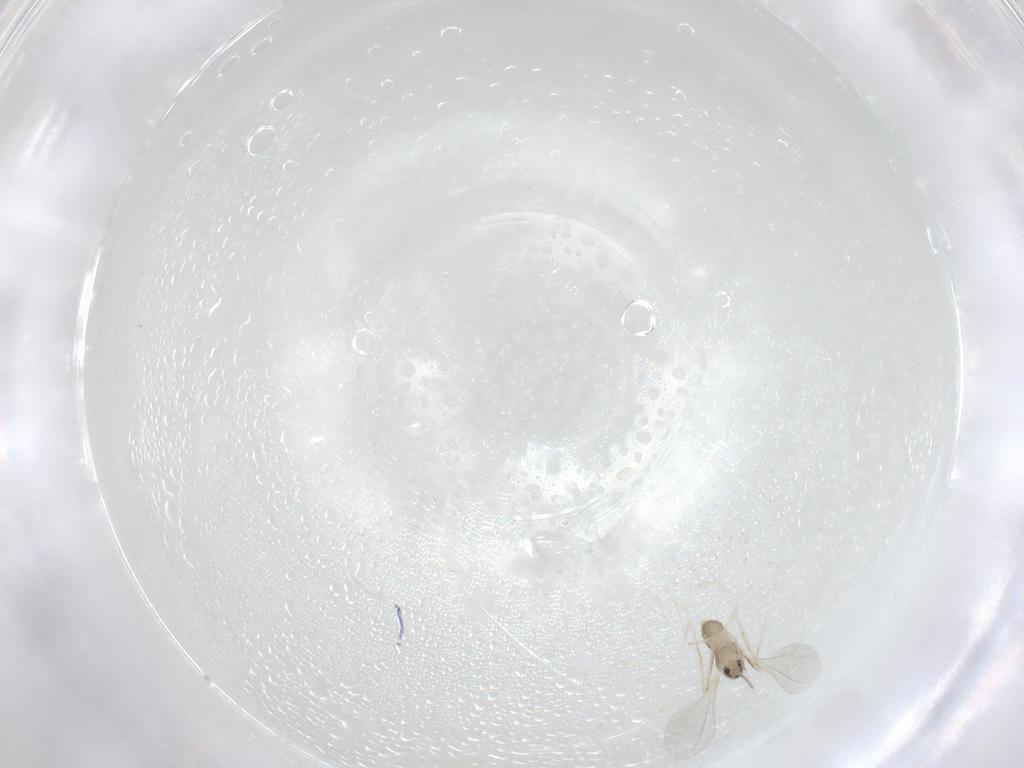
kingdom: Animalia
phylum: Arthropoda
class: Insecta
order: Diptera
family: Cecidomyiidae
